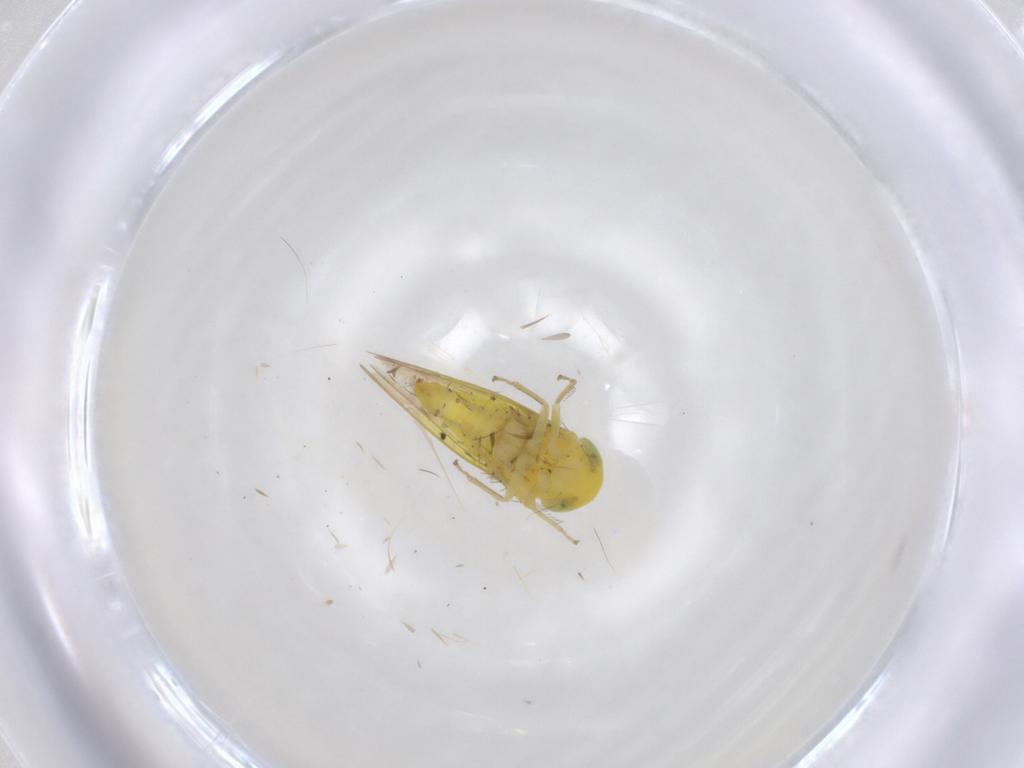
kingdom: Animalia
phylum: Arthropoda
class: Insecta
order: Hemiptera
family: Cicadellidae
